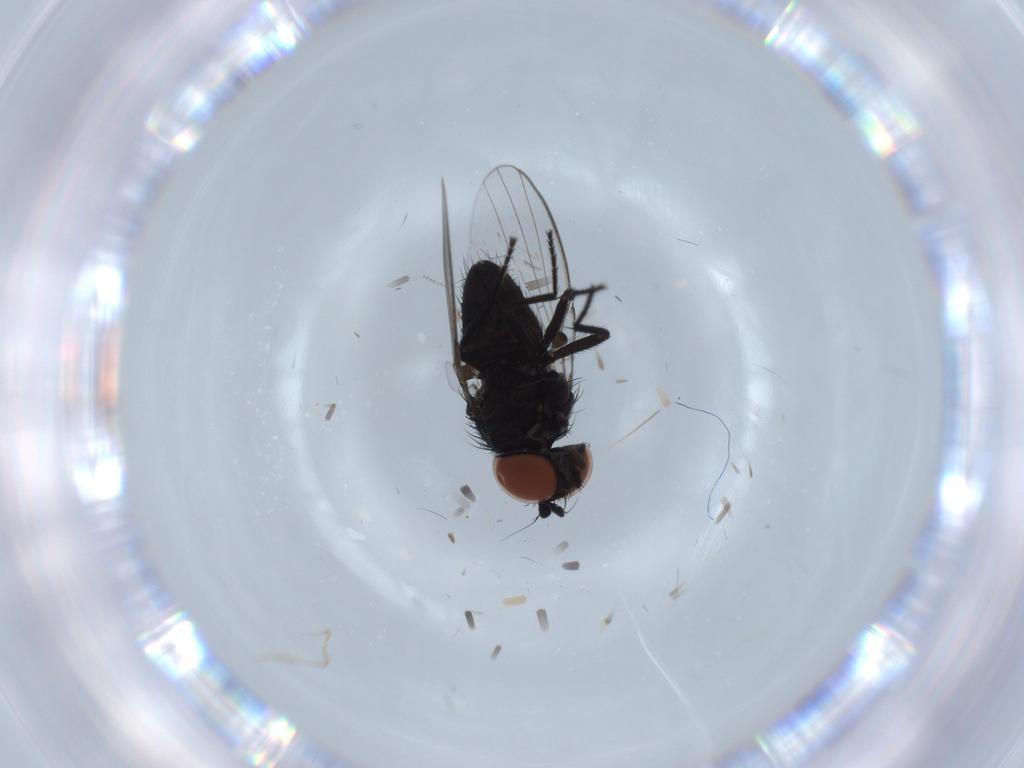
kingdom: Animalia
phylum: Arthropoda
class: Insecta
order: Diptera
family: Milichiidae
